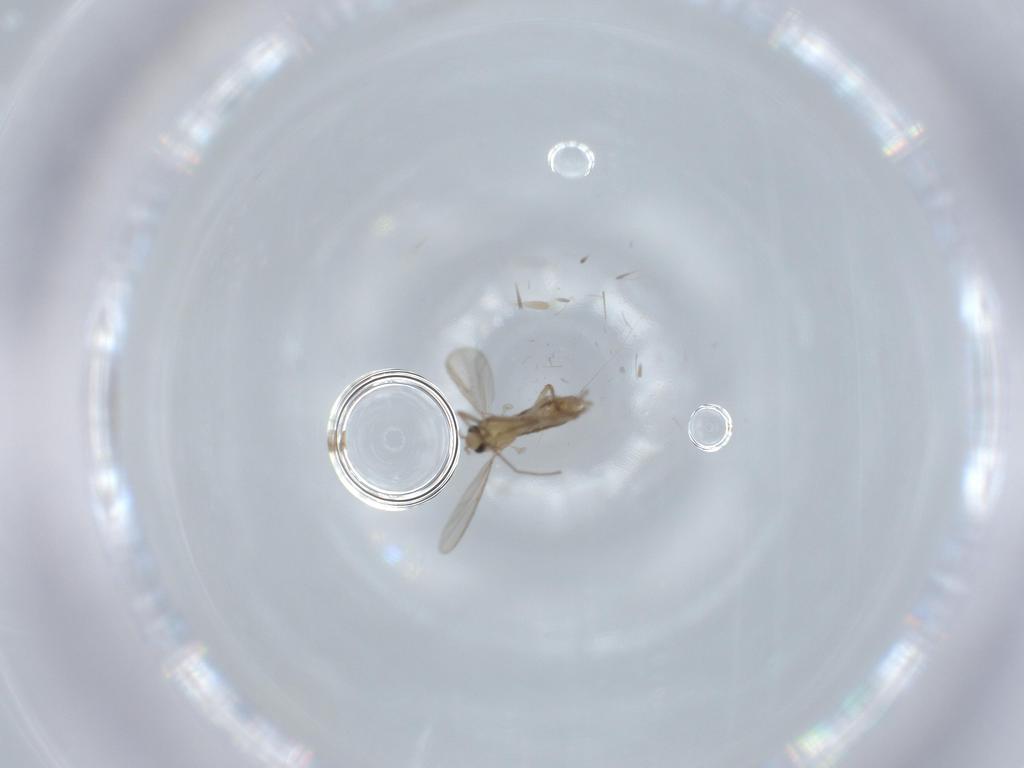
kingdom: Animalia
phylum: Arthropoda
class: Insecta
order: Diptera
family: Chironomidae
